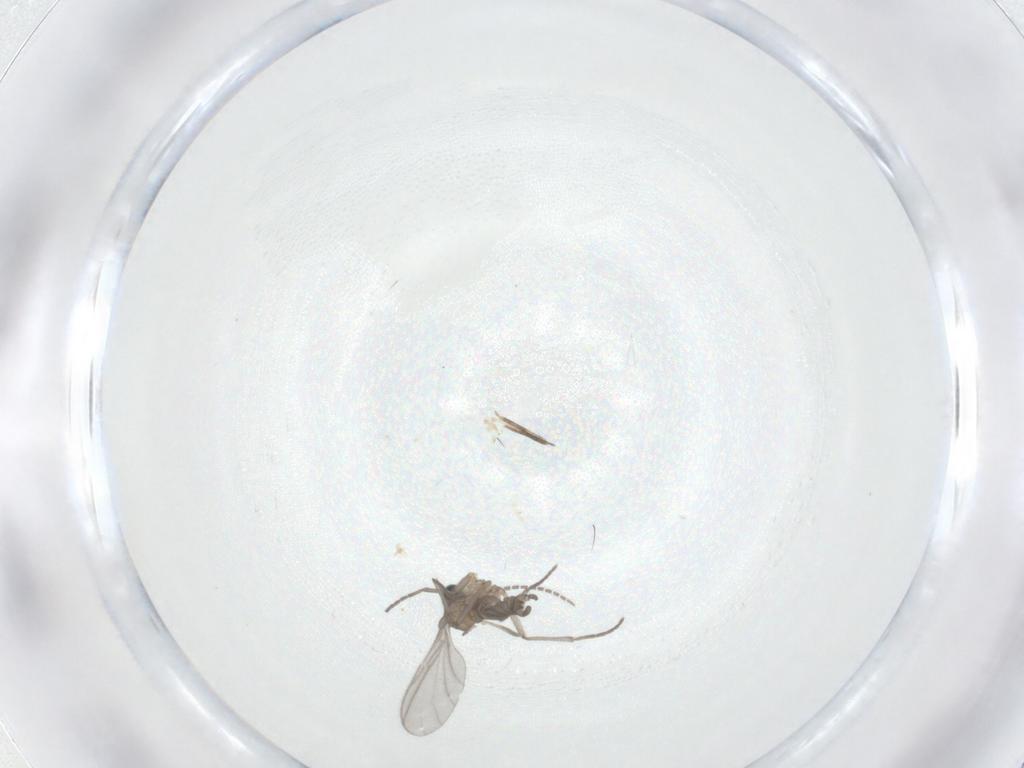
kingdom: Animalia
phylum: Arthropoda
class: Insecta
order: Diptera
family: Sciaridae
